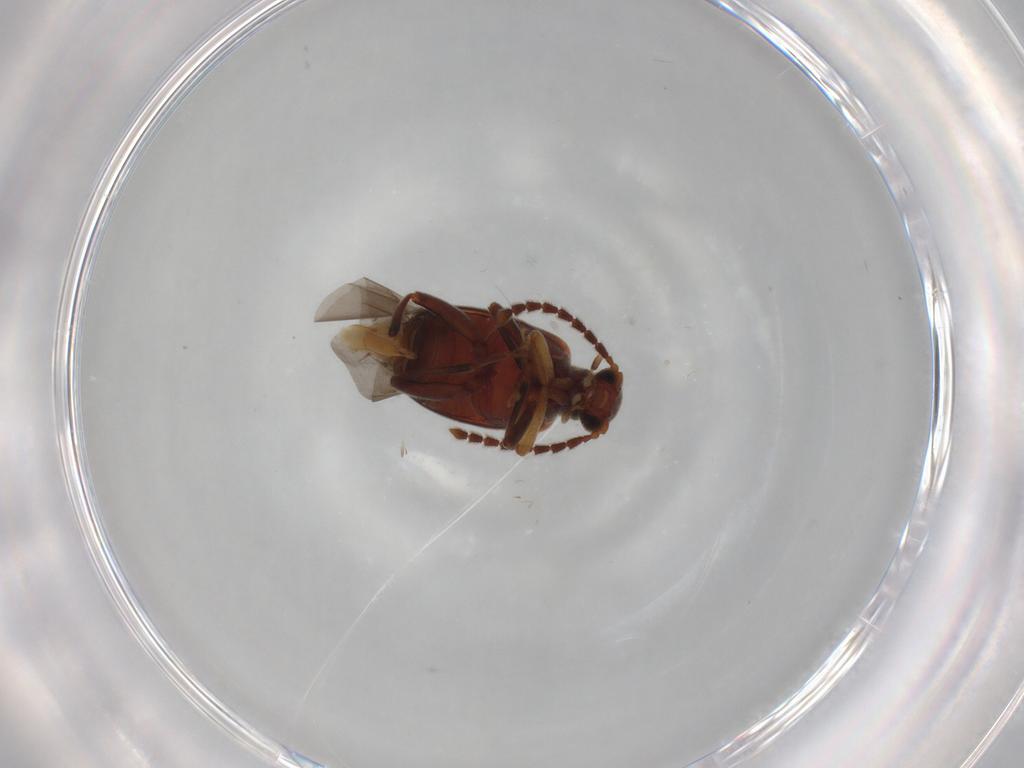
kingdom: Animalia
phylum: Arthropoda
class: Insecta
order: Coleoptera
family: Aderidae
